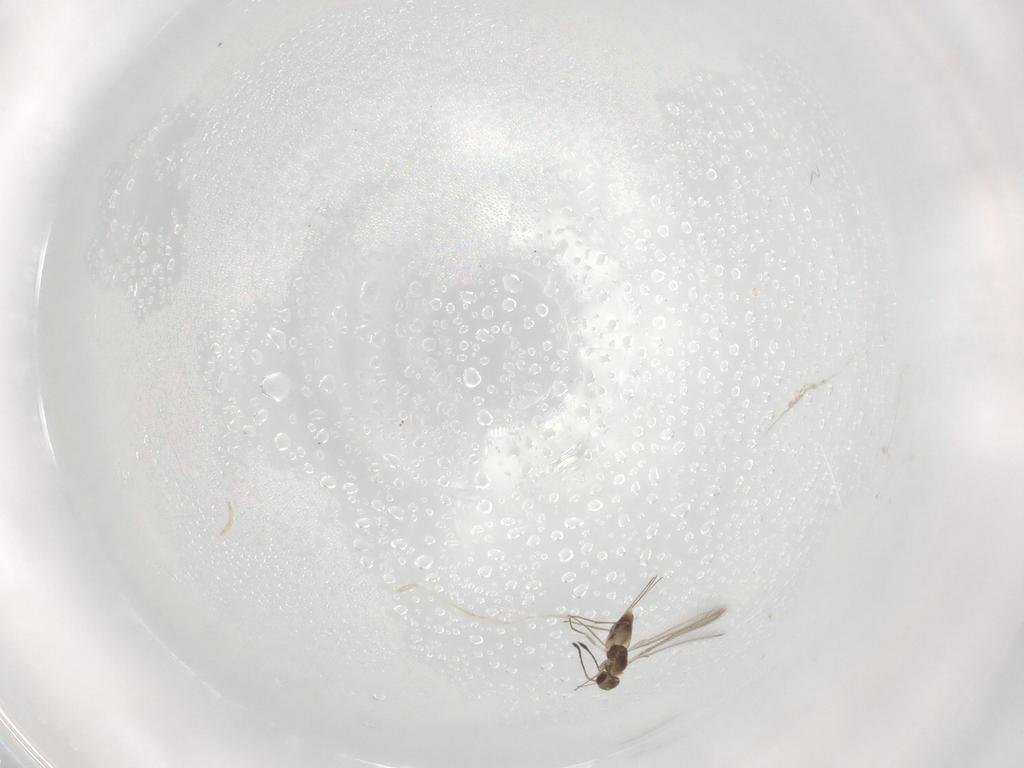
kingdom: Animalia
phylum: Arthropoda
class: Insecta
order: Hymenoptera
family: Mymaridae
